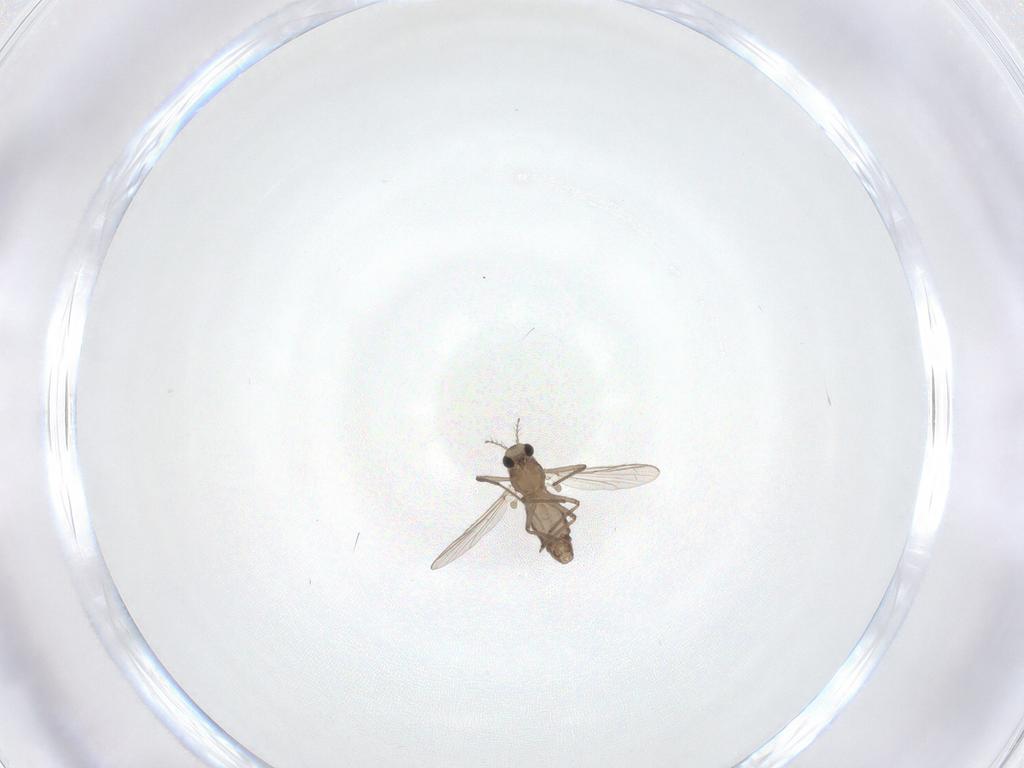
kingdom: Animalia
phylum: Arthropoda
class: Insecta
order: Diptera
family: Chironomidae
